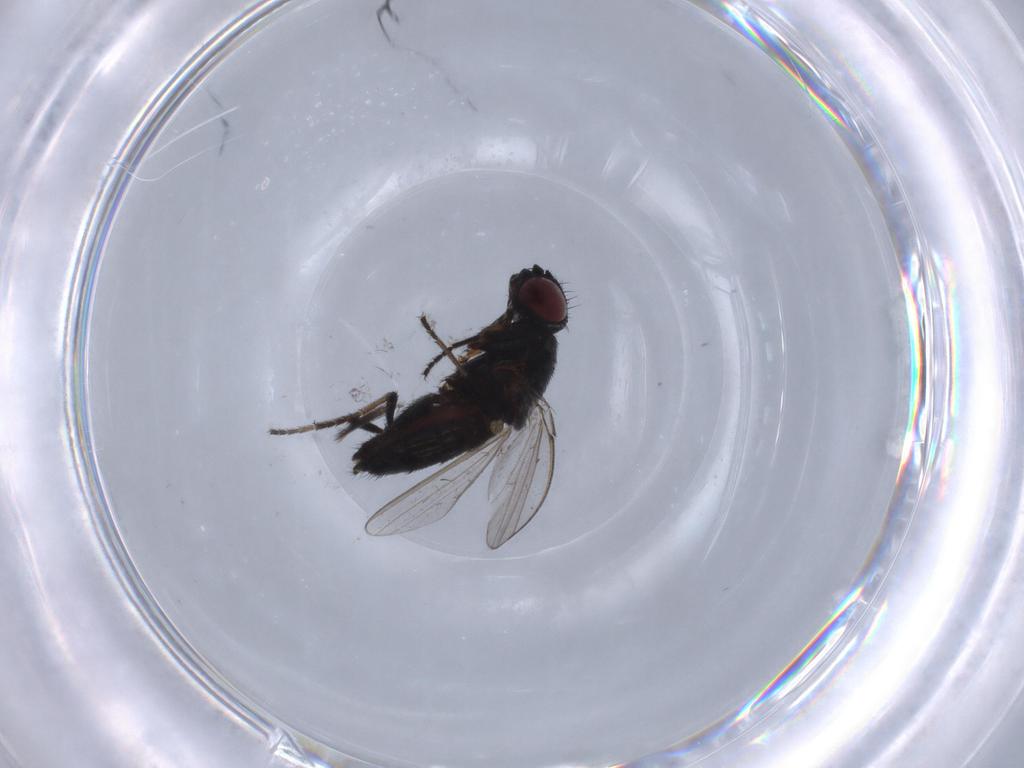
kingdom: Animalia
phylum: Arthropoda
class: Insecta
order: Diptera
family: Milichiidae
